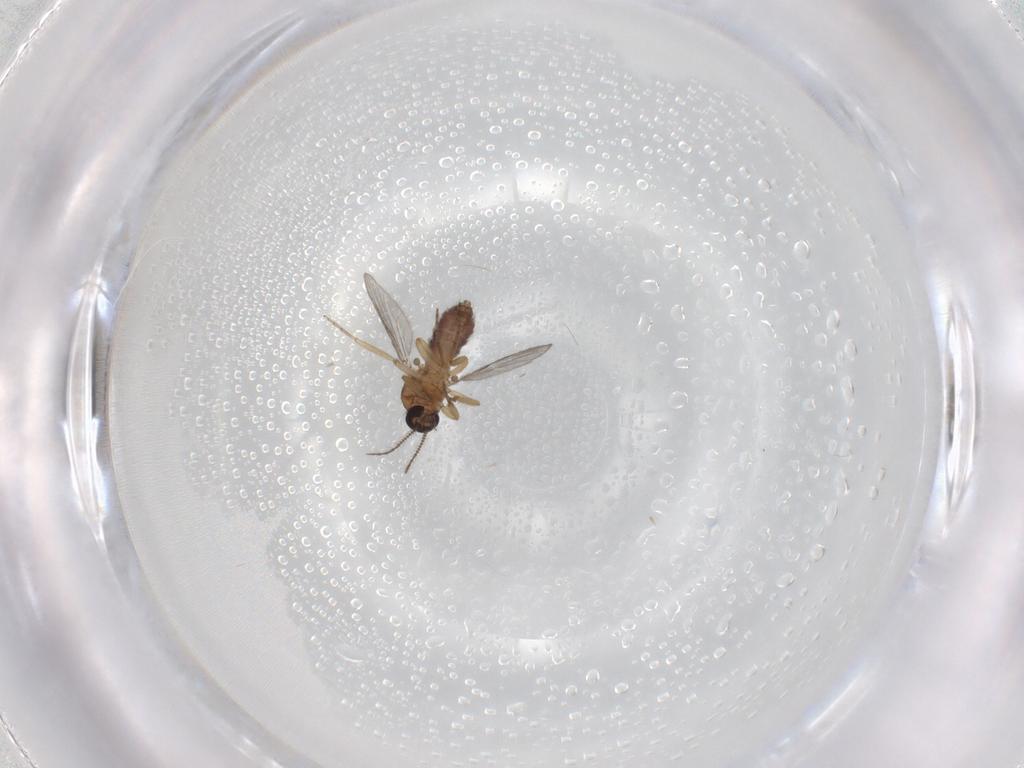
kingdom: Animalia
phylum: Arthropoda
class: Insecta
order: Diptera
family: Ceratopogonidae
